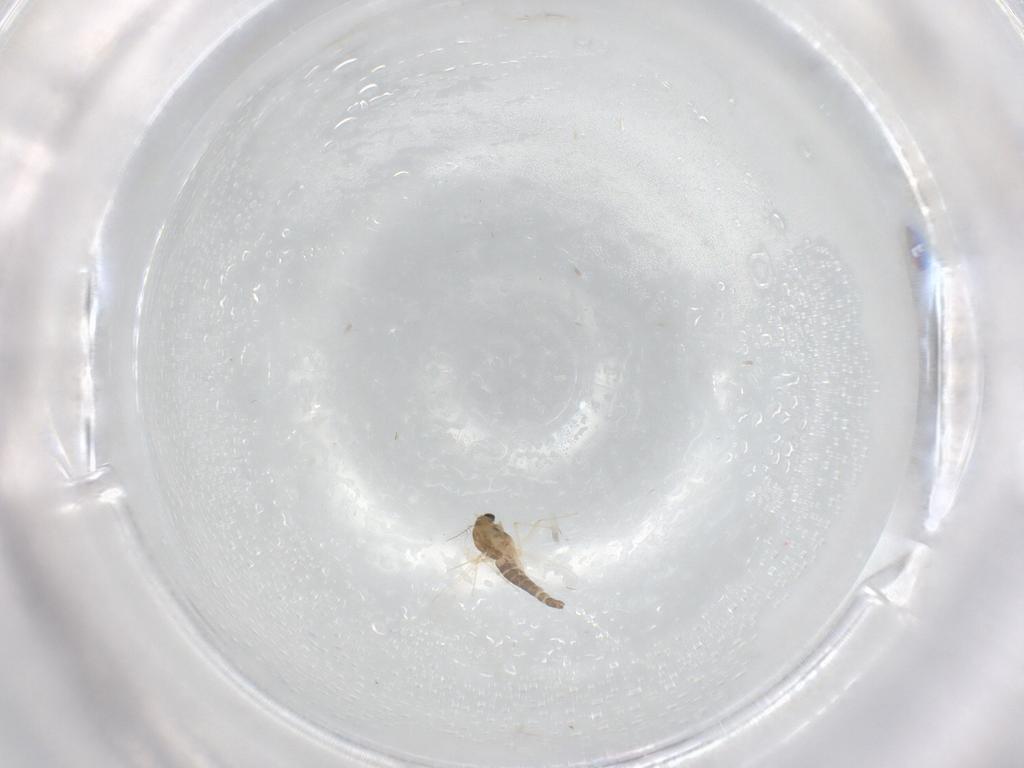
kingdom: Animalia
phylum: Arthropoda
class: Insecta
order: Diptera
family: Chironomidae
